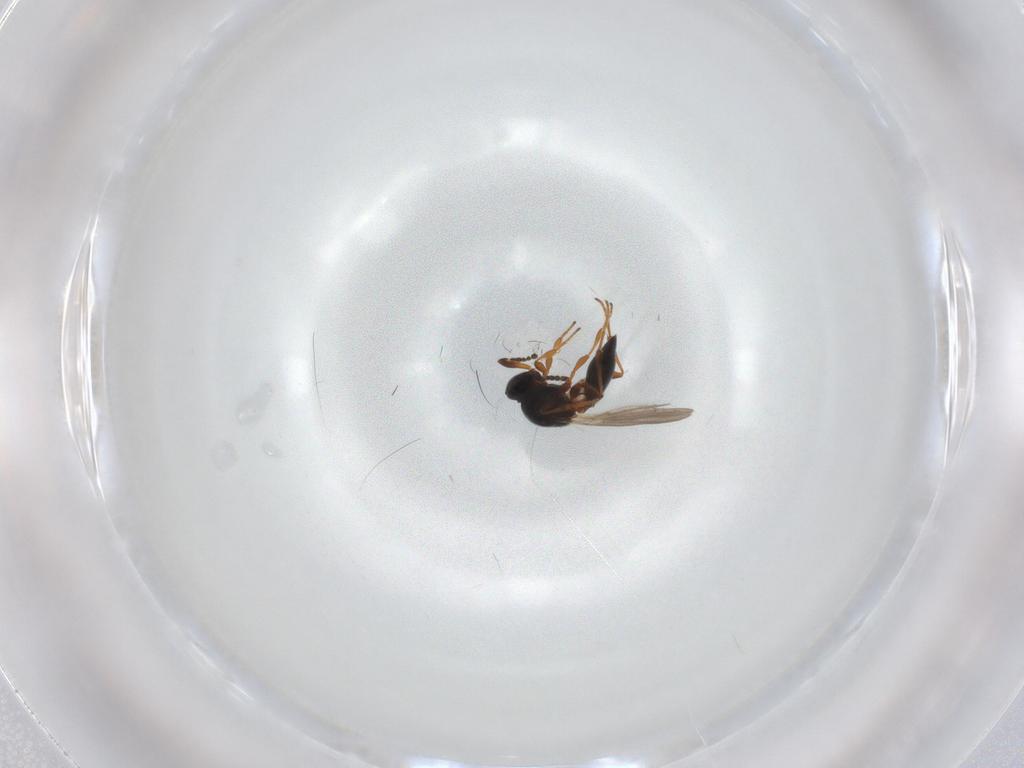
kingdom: Animalia
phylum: Arthropoda
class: Insecta
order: Hymenoptera
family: Platygastridae
